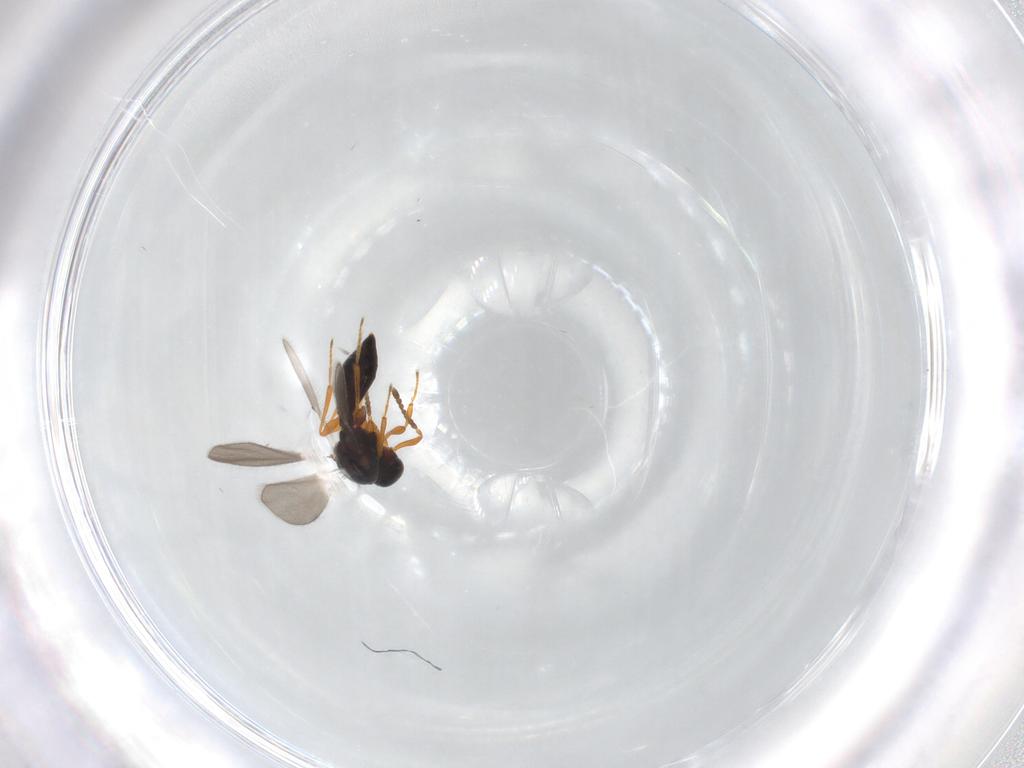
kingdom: Animalia
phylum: Arthropoda
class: Insecta
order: Hymenoptera
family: Platygastridae
